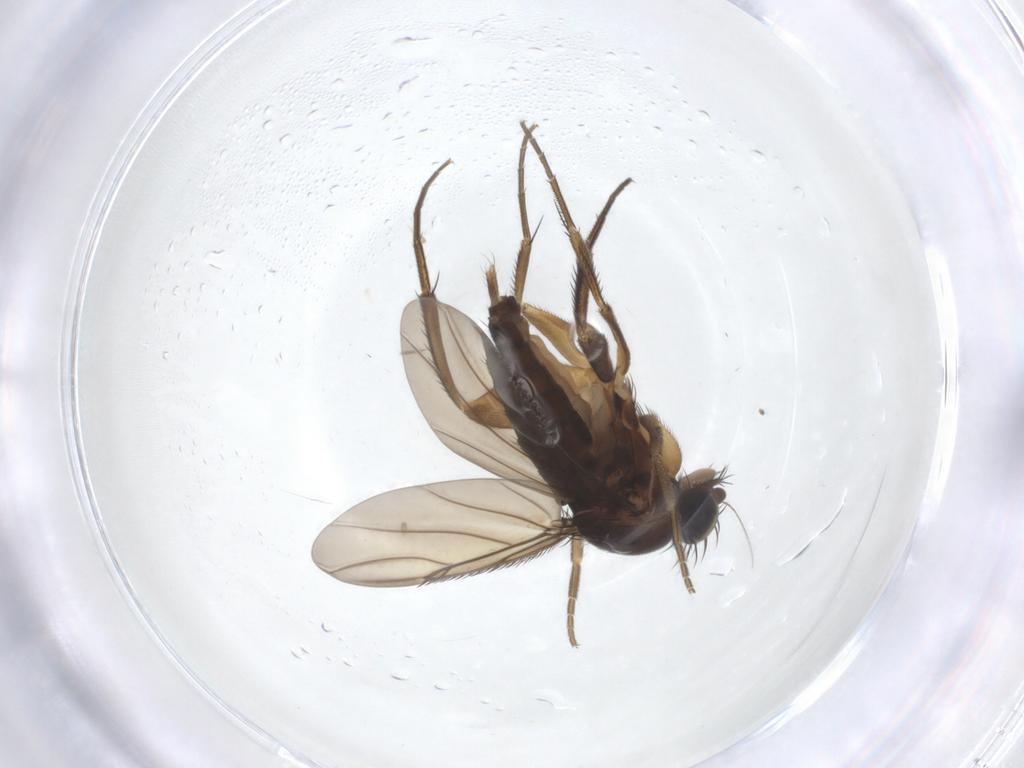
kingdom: Animalia
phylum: Arthropoda
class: Insecta
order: Diptera
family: Phoridae
